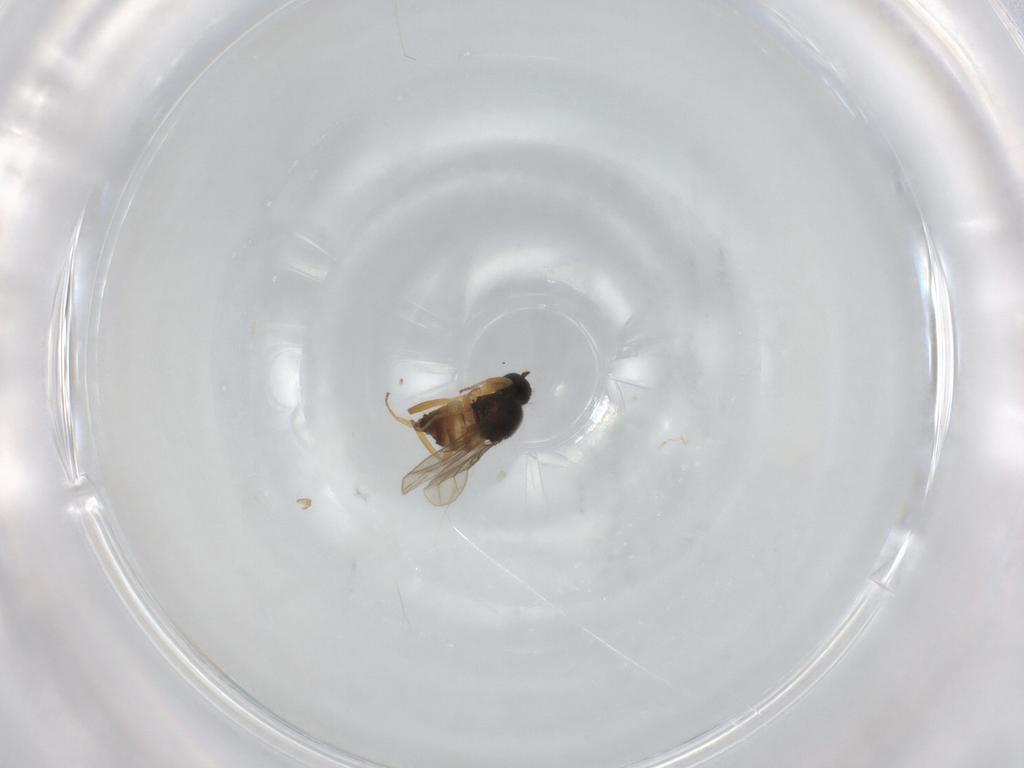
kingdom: Animalia
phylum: Arthropoda
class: Insecta
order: Diptera
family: Hybotidae
